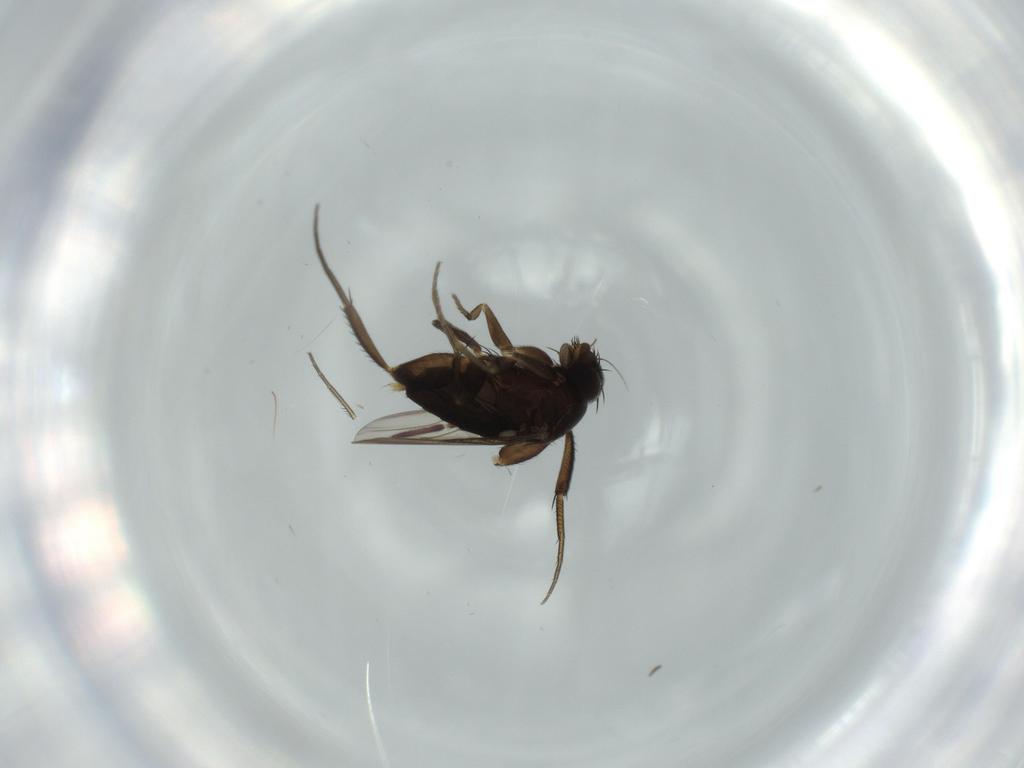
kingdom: Animalia
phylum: Arthropoda
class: Insecta
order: Diptera
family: Phoridae
